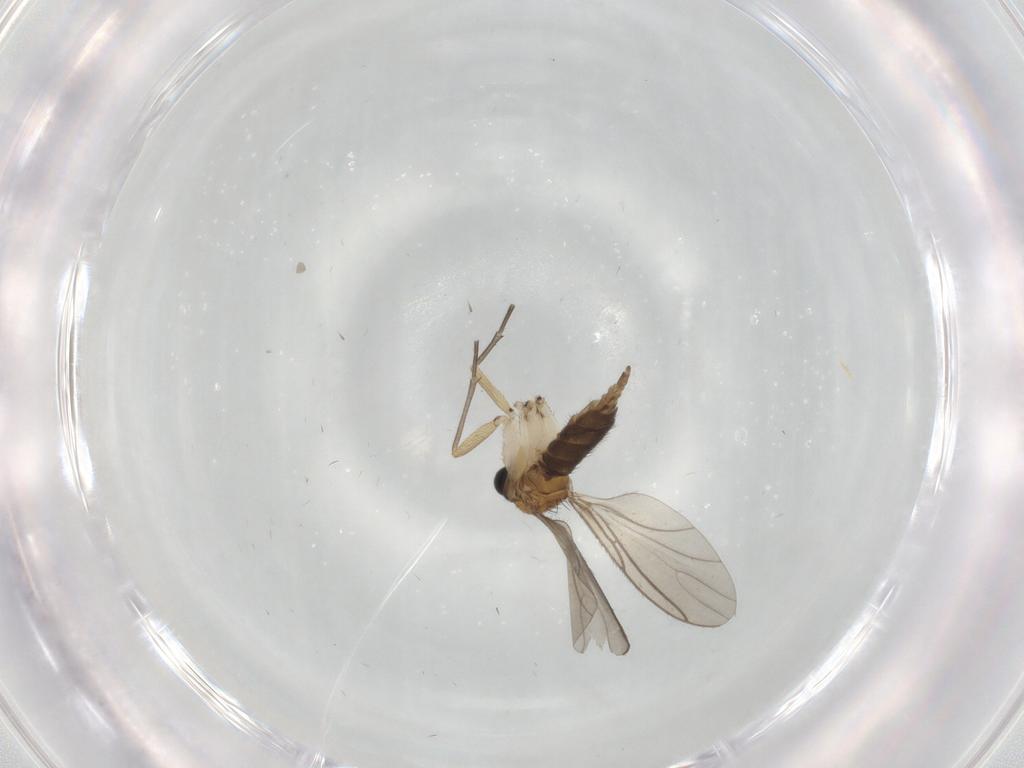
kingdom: Animalia
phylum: Arthropoda
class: Insecta
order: Diptera
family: Sciaridae
